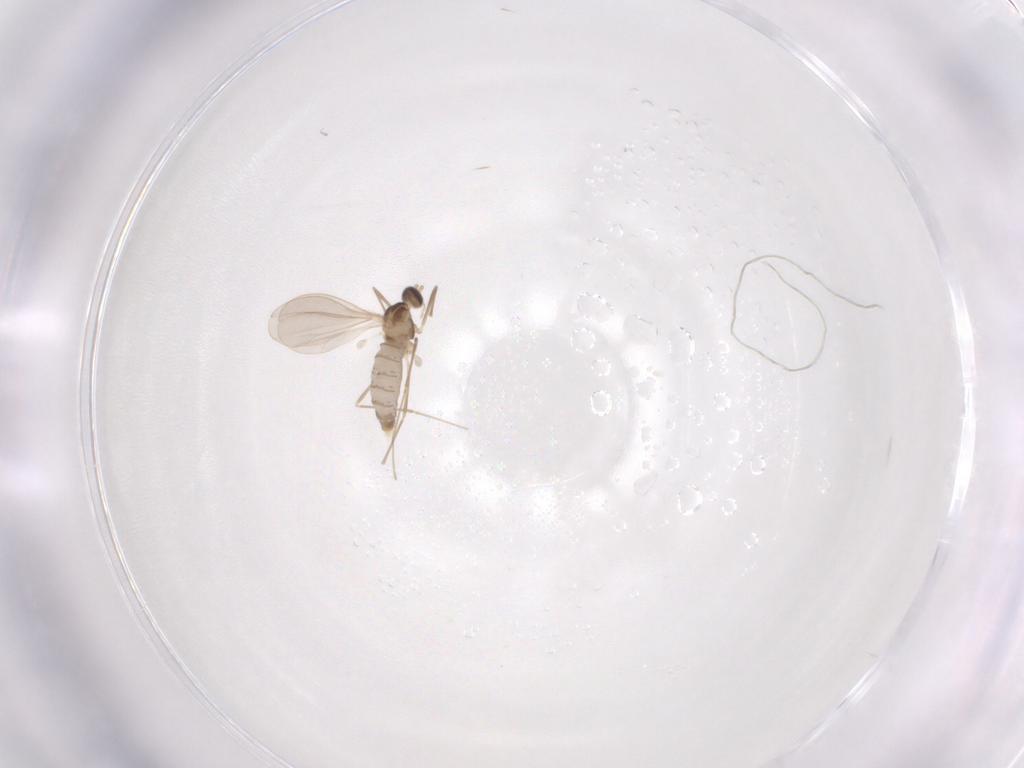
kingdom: Animalia
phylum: Arthropoda
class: Insecta
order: Diptera
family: Cecidomyiidae
